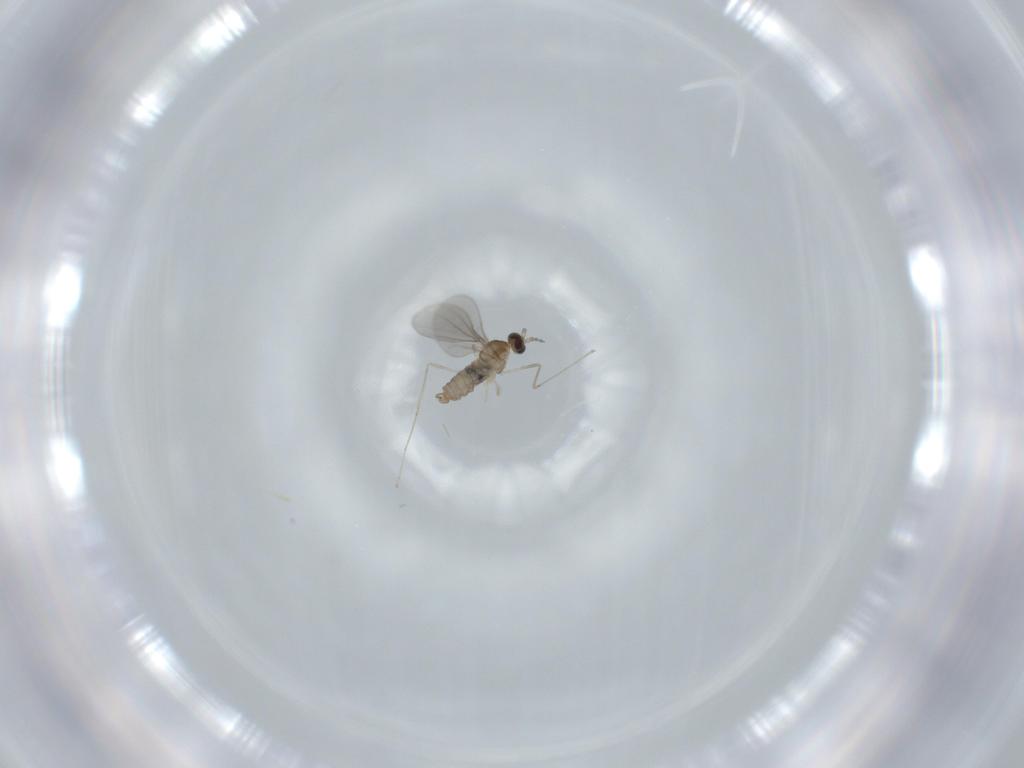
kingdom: Animalia
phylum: Arthropoda
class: Insecta
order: Diptera
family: Cecidomyiidae
